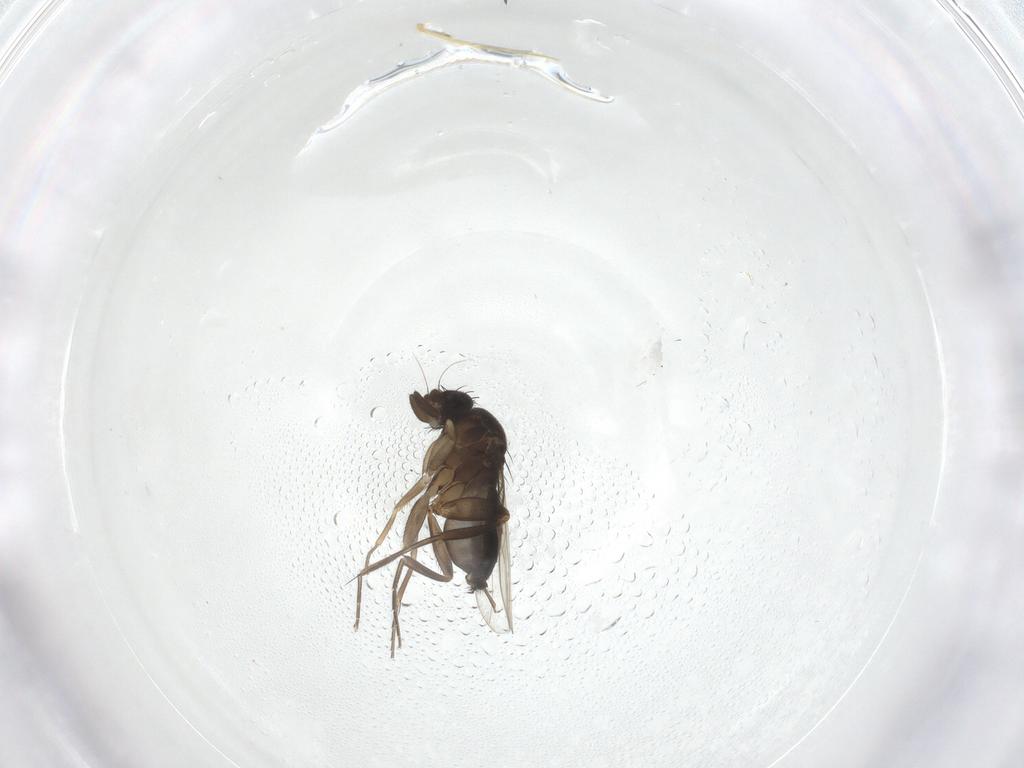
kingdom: Animalia
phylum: Arthropoda
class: Insecta
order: Diptera
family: Phoridae
